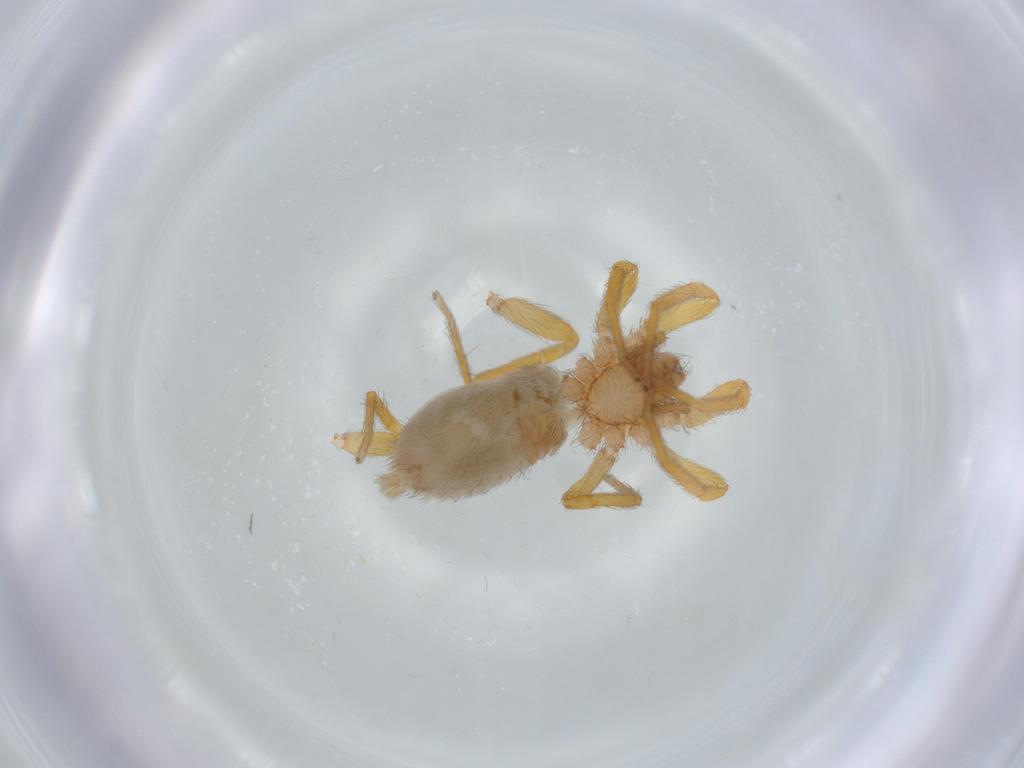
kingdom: Animalia
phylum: Arthropoda
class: Arachnida
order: Araneae
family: Oonopidae
